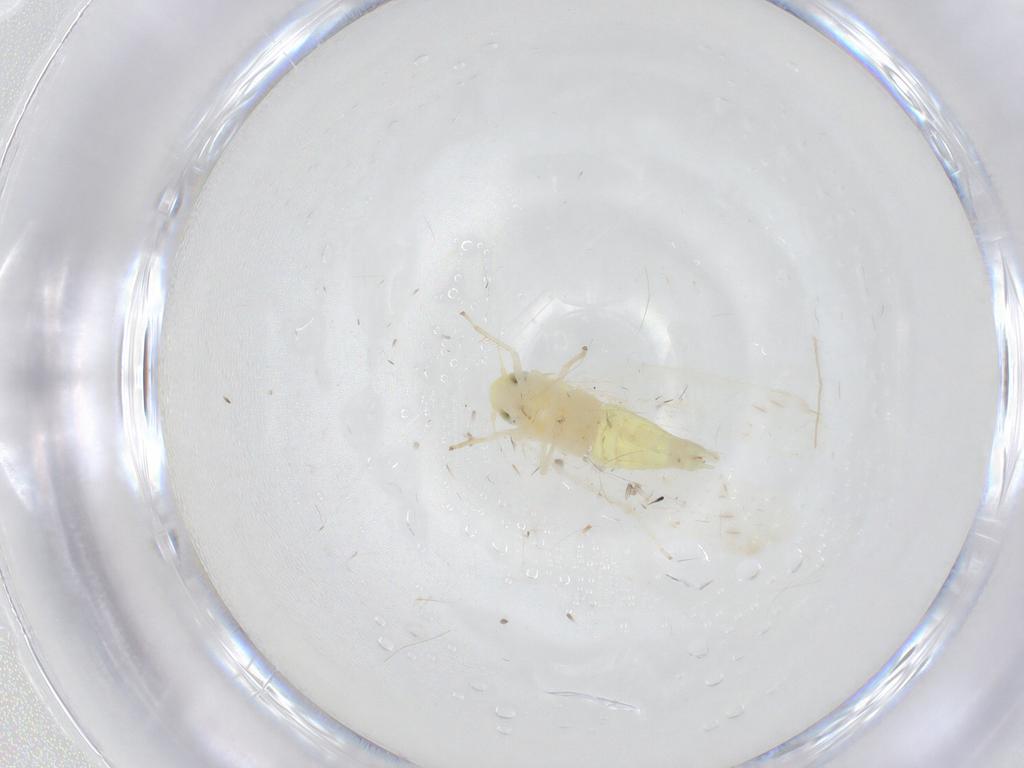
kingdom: Animalia
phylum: Arthropoda
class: Insecta
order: Hemiptera
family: Cicadellidae
